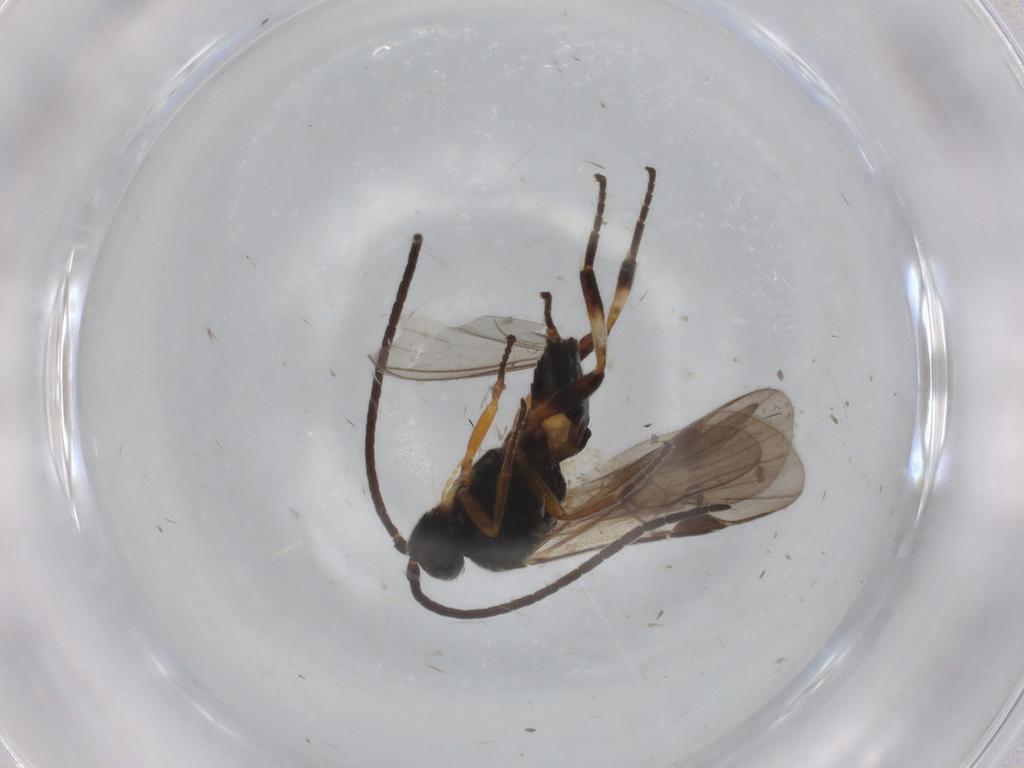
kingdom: Animalia
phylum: Arthropoda
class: Insecta
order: Hymenoptera
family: Braconidae
